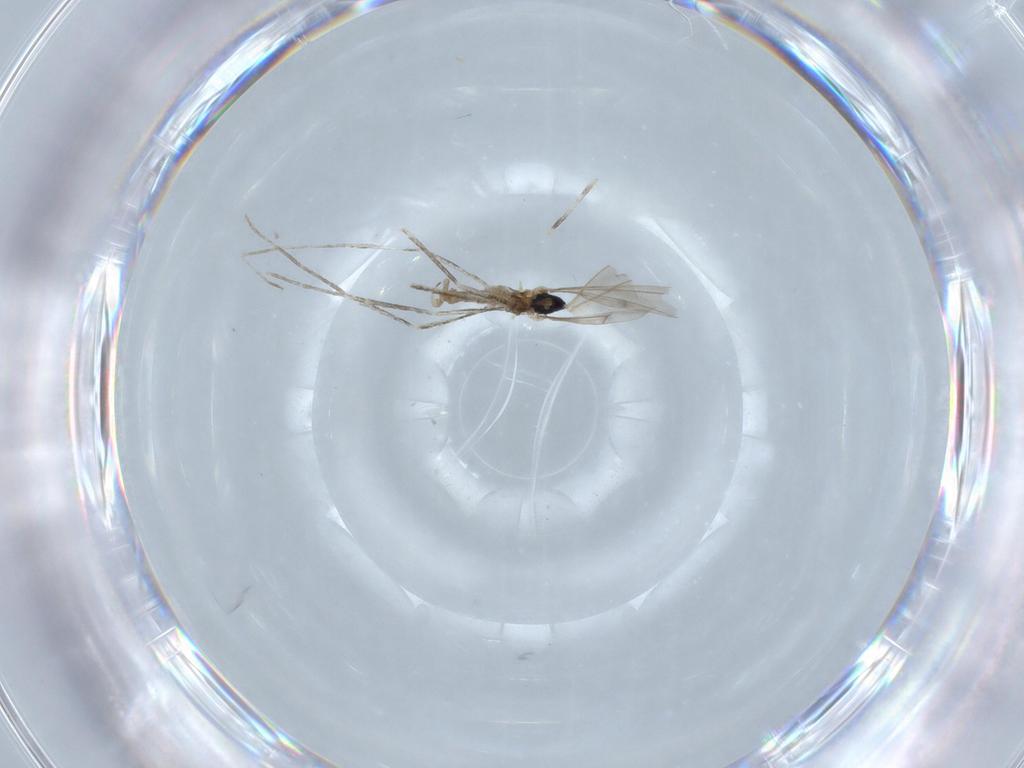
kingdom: Animalia
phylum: Arthropoda
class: Insecta
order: Diptera
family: Cecidomyiidae
